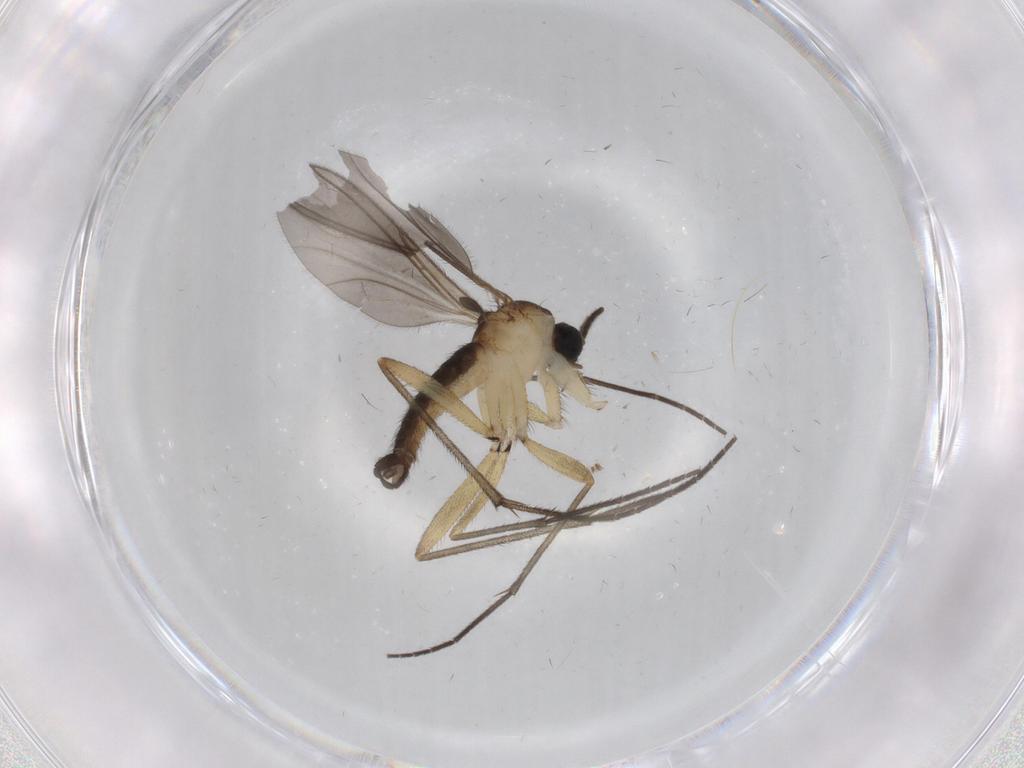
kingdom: Animalia
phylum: Arthropoda
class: Insecta
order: Diptera
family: Sciaridae
